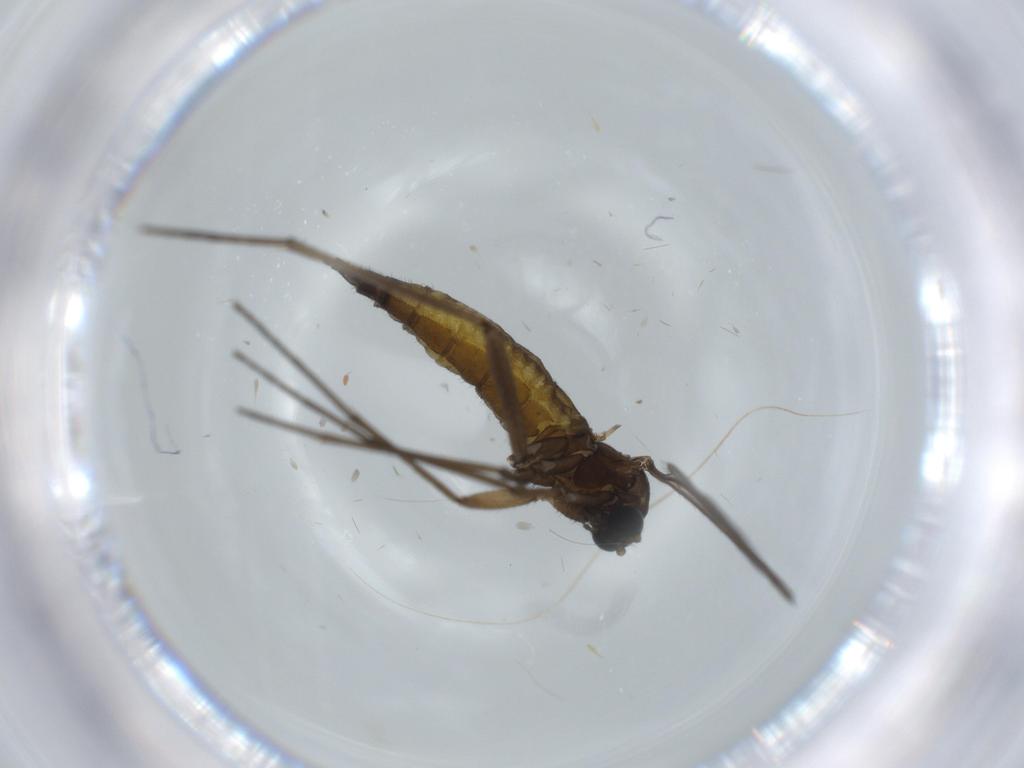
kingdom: Animalia
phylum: Arthropoda
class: Insecta
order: Diptera
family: Sciaridae
